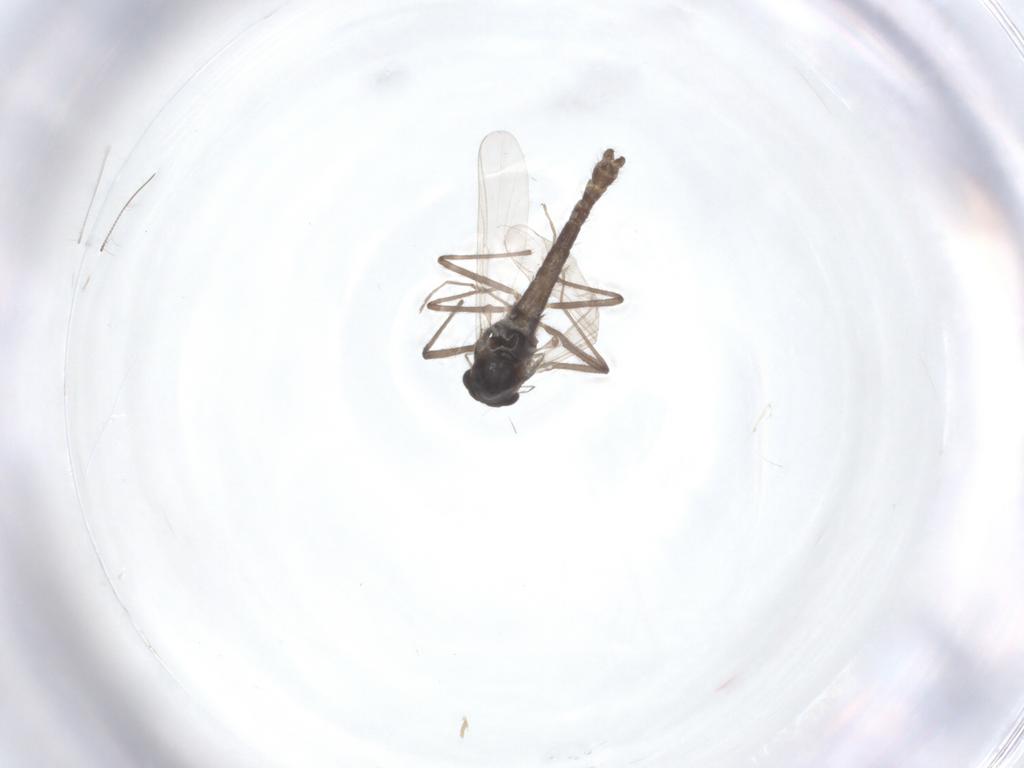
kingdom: Animalia
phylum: Arthropoda
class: Insecta
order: Diptera
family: Chironomidae
